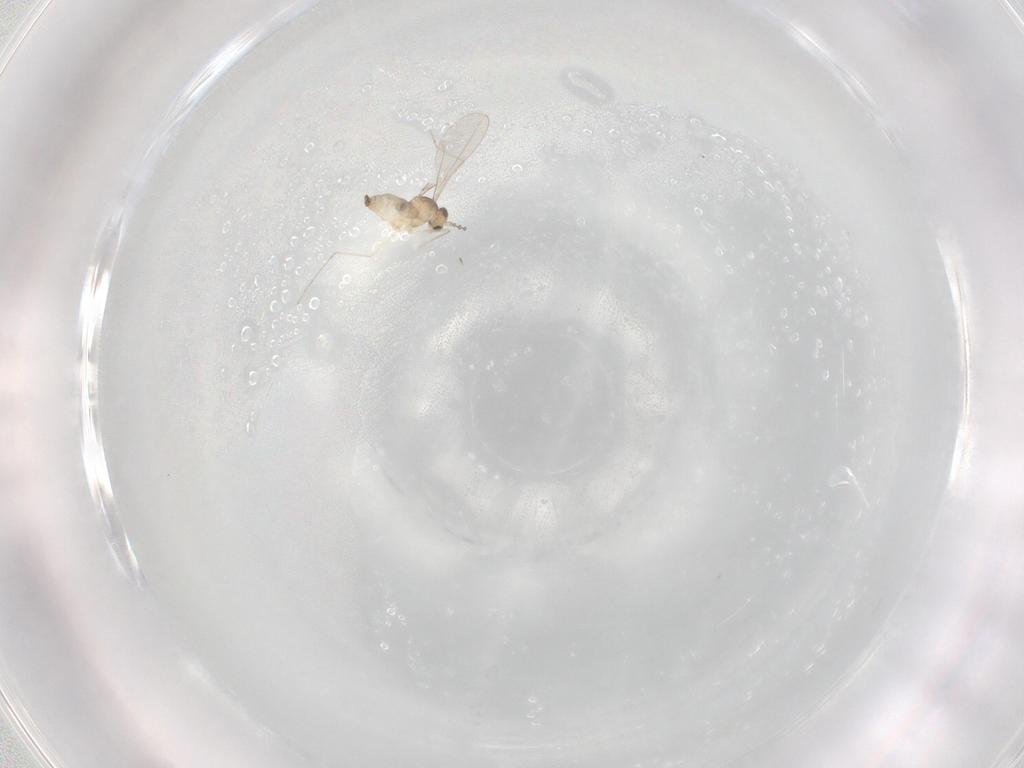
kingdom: Animalia
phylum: Arthropoda
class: Insecta
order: Diptera
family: Cecidomyiidae
